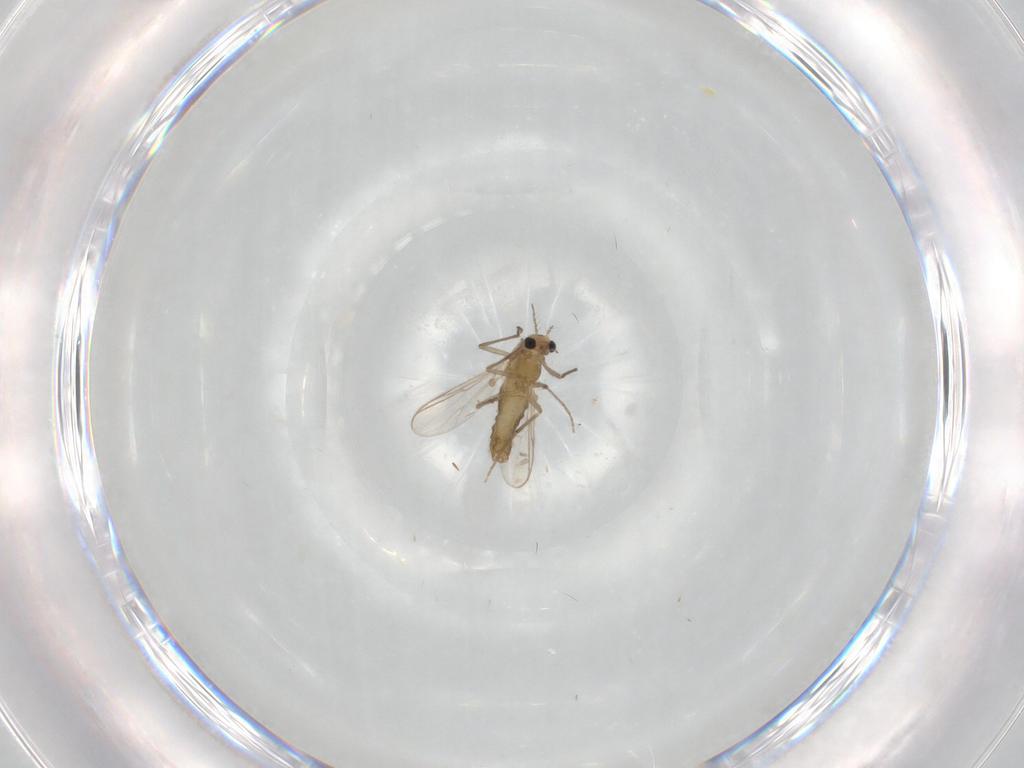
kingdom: Animalia
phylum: Arthropoda
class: Insecta
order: Diptera
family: Chironomidae
